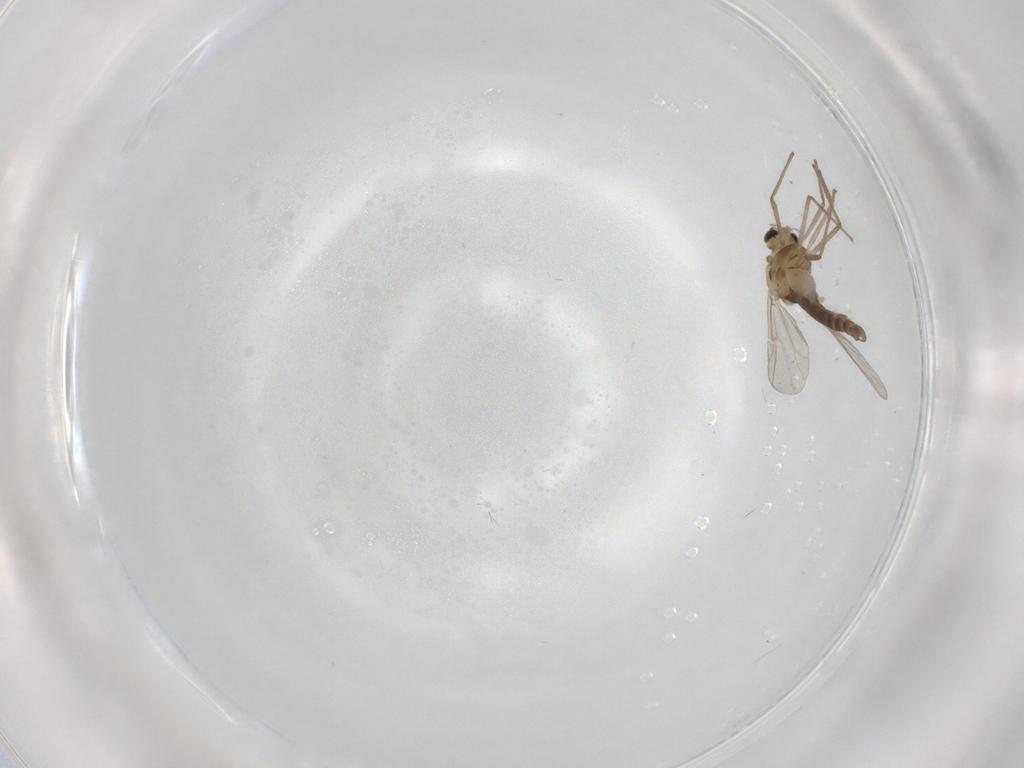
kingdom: Animalia
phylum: Arthropoda
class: Insecta
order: Diptera
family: Chironomidae
